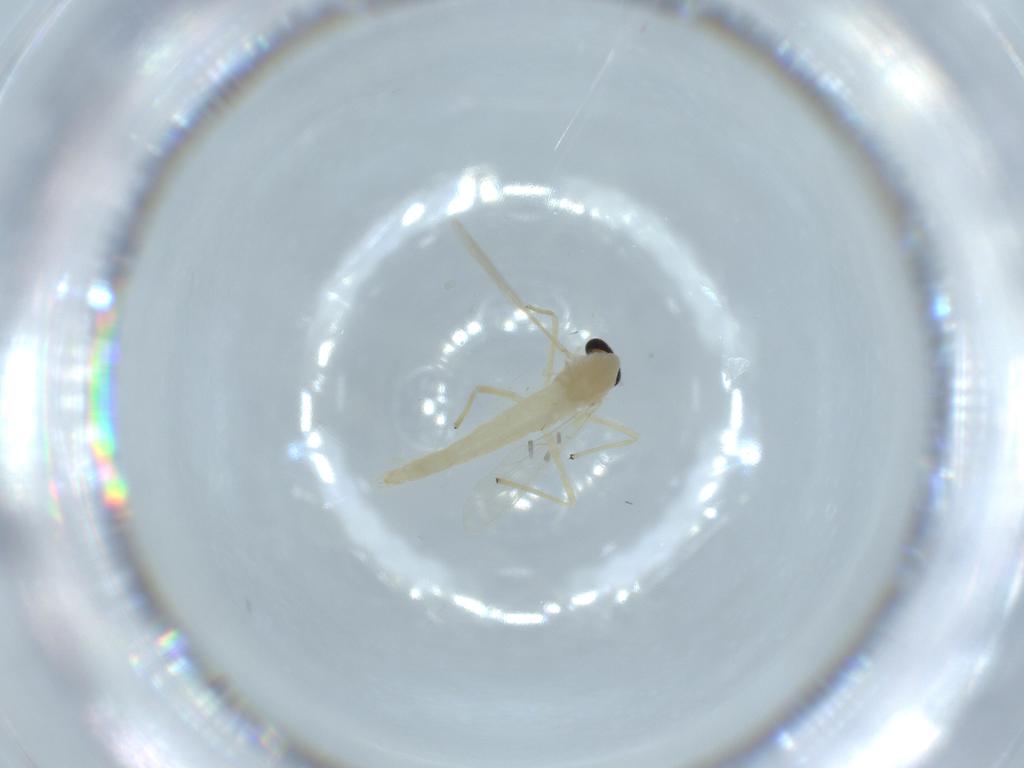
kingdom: Animalia
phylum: Arthropoda
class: Insecta
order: Diptera
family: Chironomidae
